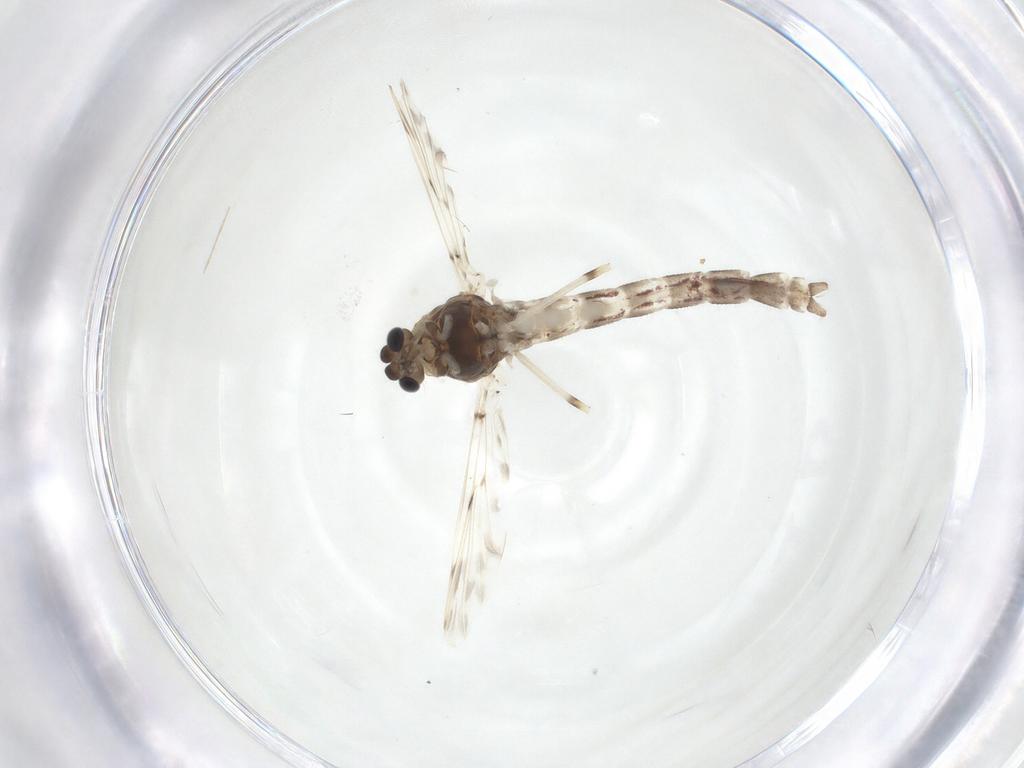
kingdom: Animalia
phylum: Arthropoda
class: Insecta
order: Diptera
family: Chironomidae
